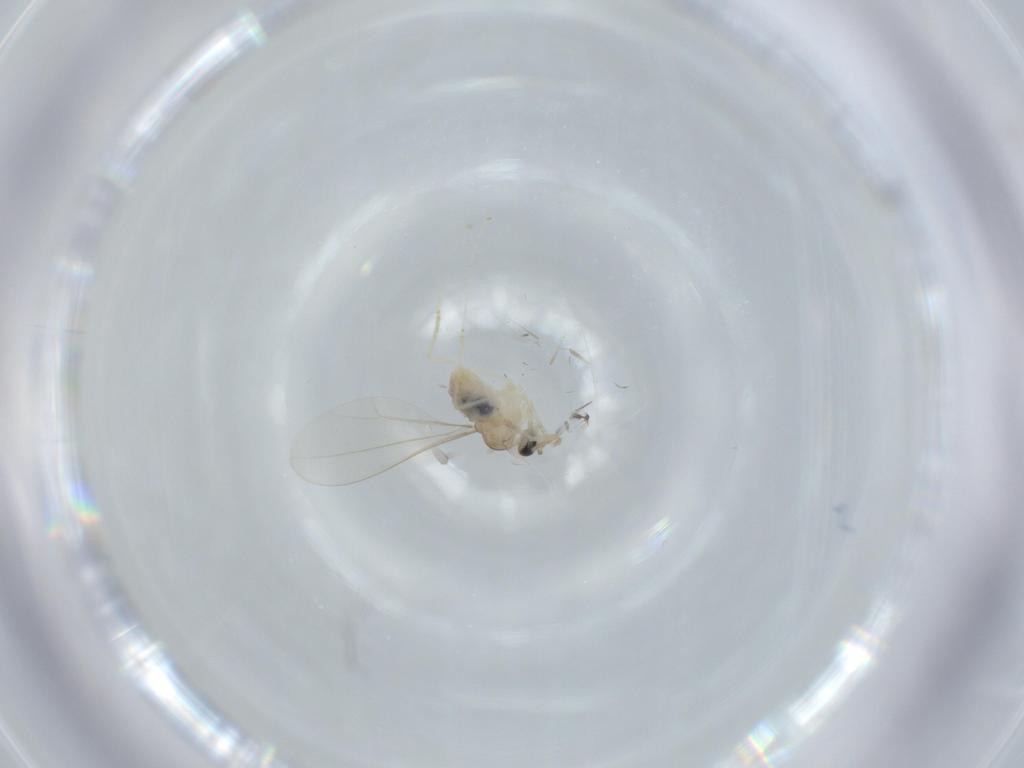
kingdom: Animalia
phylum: Arthropoda
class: Insecta
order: Diptera
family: Cecidomyiidae
